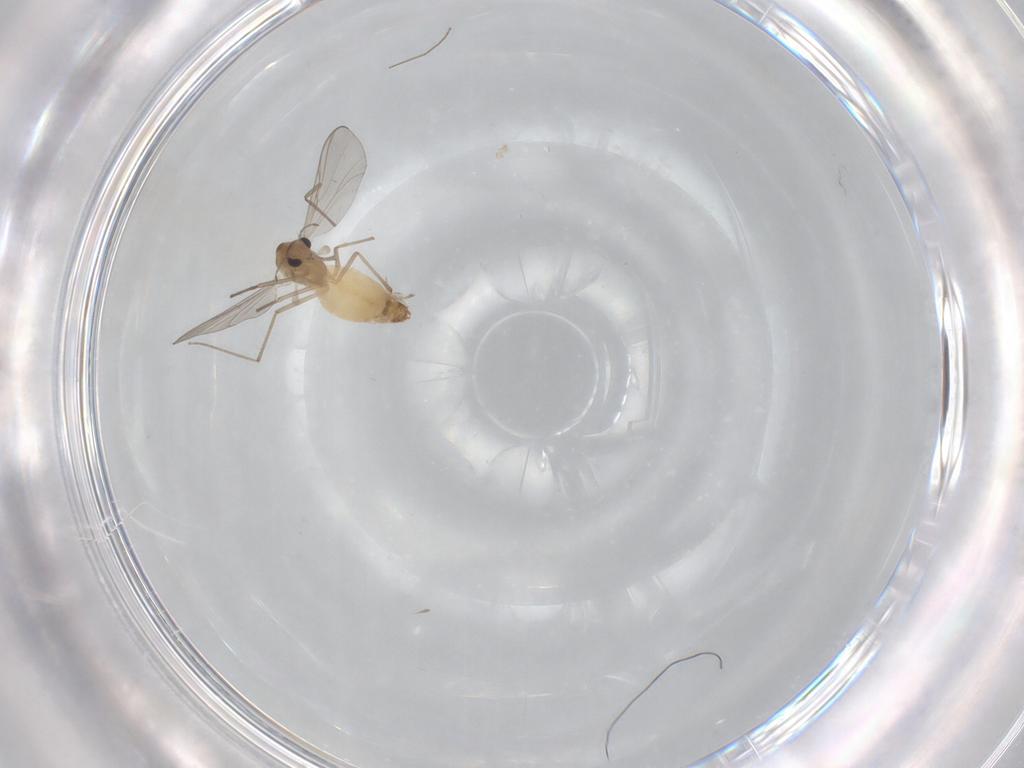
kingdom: Animalia
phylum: Arthropoda
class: Insecta
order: Diptera
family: Chironomidae
